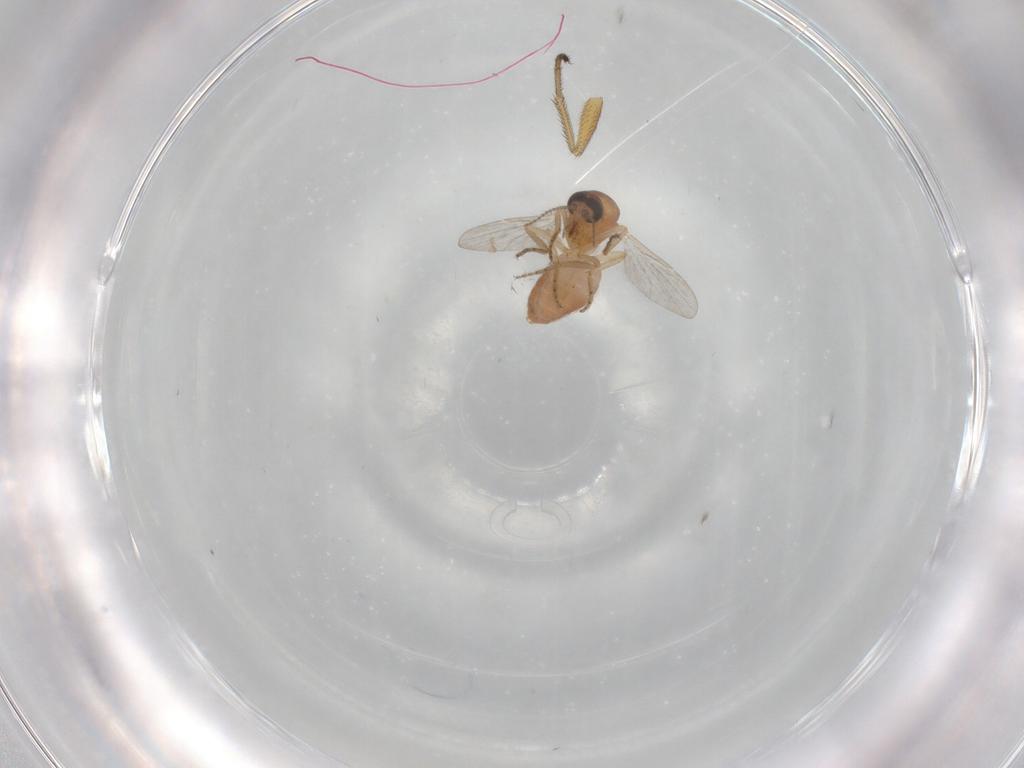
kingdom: Animalia
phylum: Arthropoda
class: Insecta
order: Diptera
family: Ceratopogonidae
